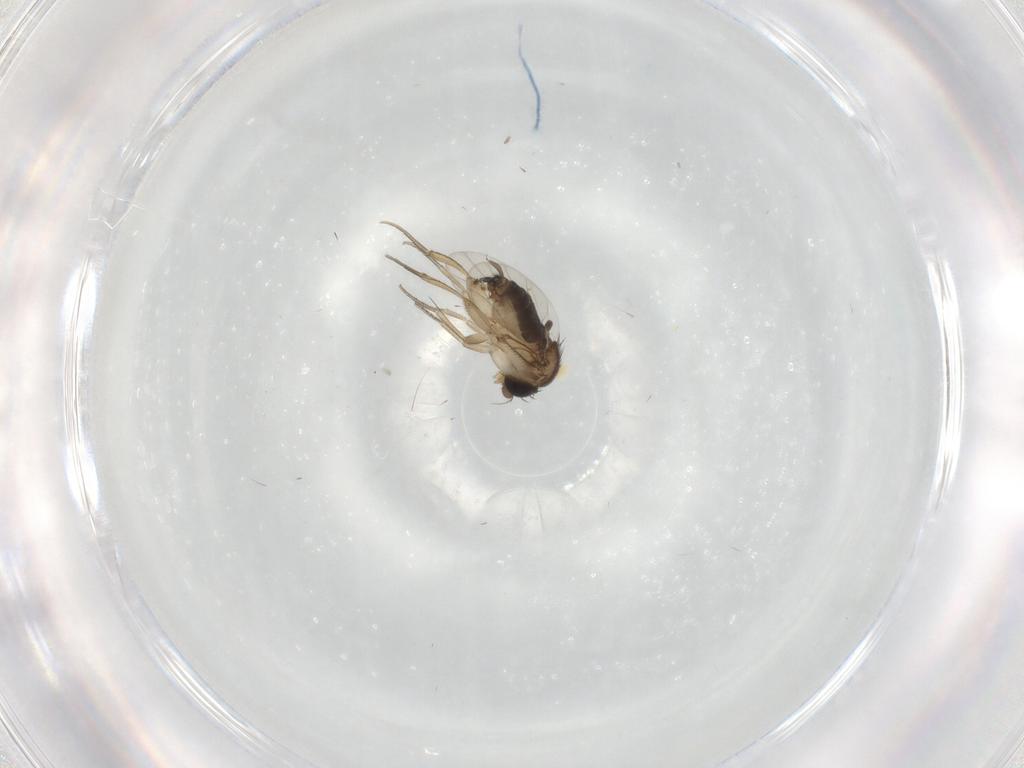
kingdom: Animalia
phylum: Arthropoda
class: Insecta
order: Diptera
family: Phoridae
